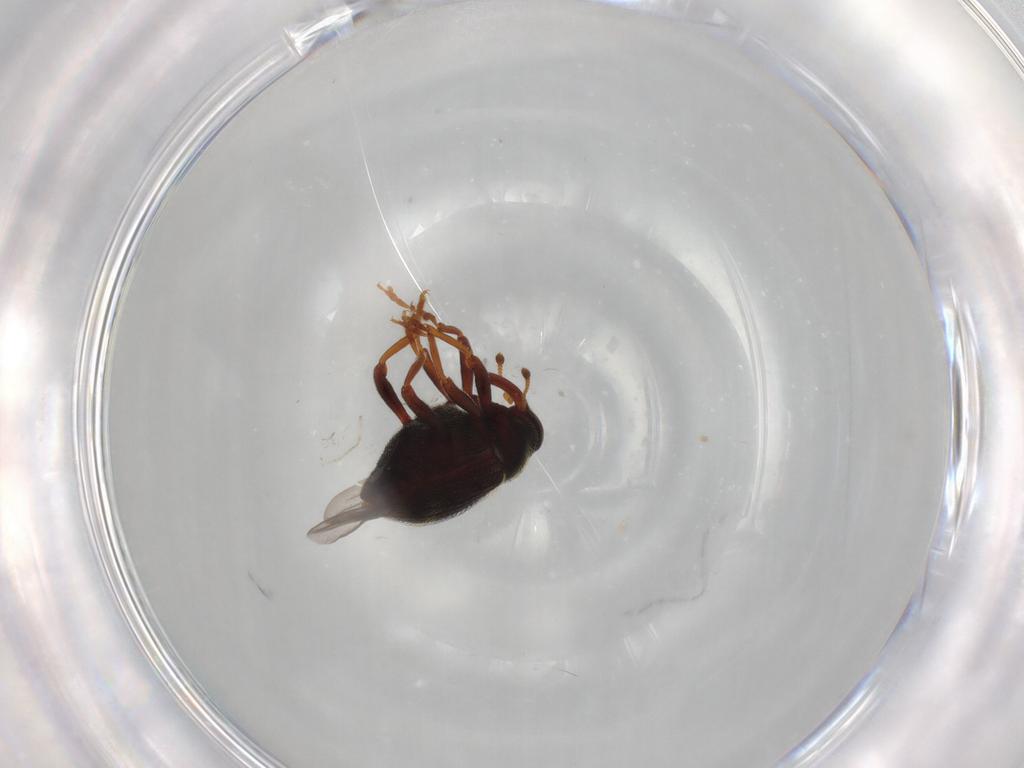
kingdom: Animalia
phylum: Arthropoda
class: Insecta
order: Coleoptera
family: Curculionidae
